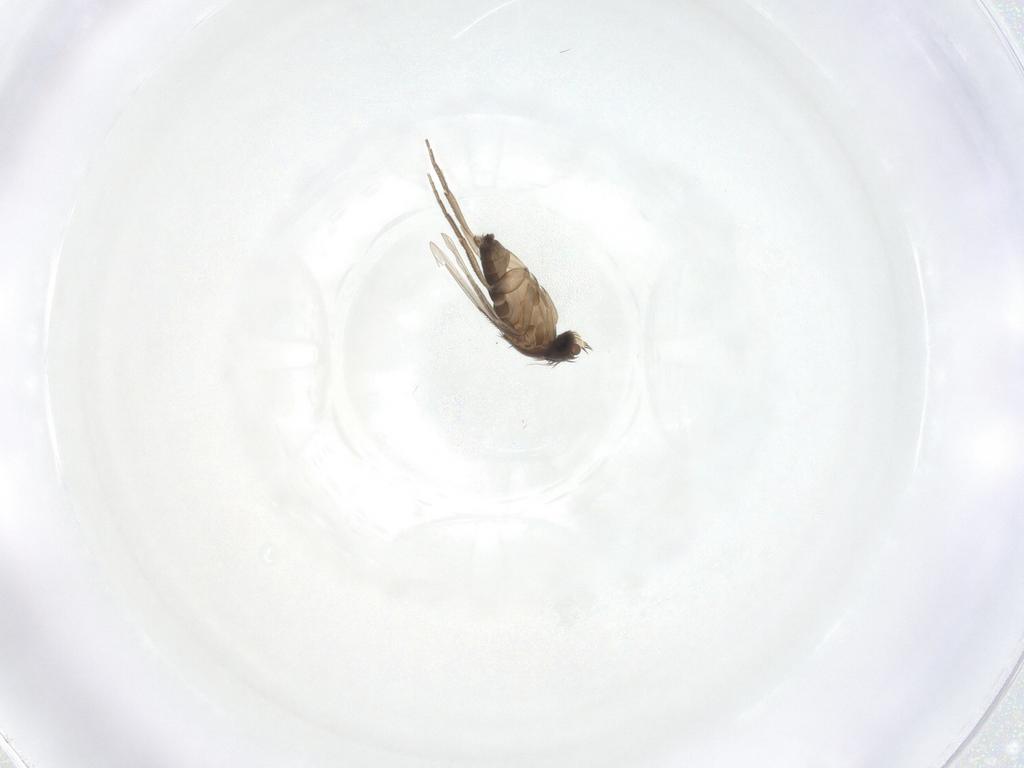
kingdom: Animalia
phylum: Arthropoda
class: Insecta
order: Diptera
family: Phoridae
